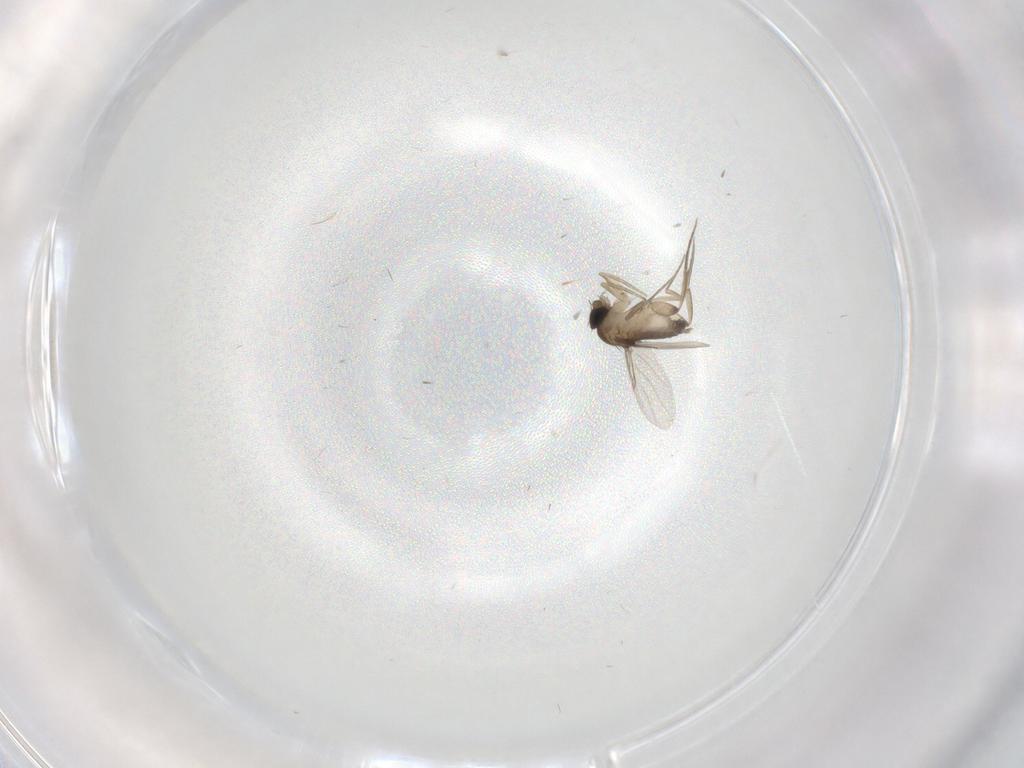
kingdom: Animalia
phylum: Arthropoda
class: Insecta
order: Diptera
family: Phoridae
